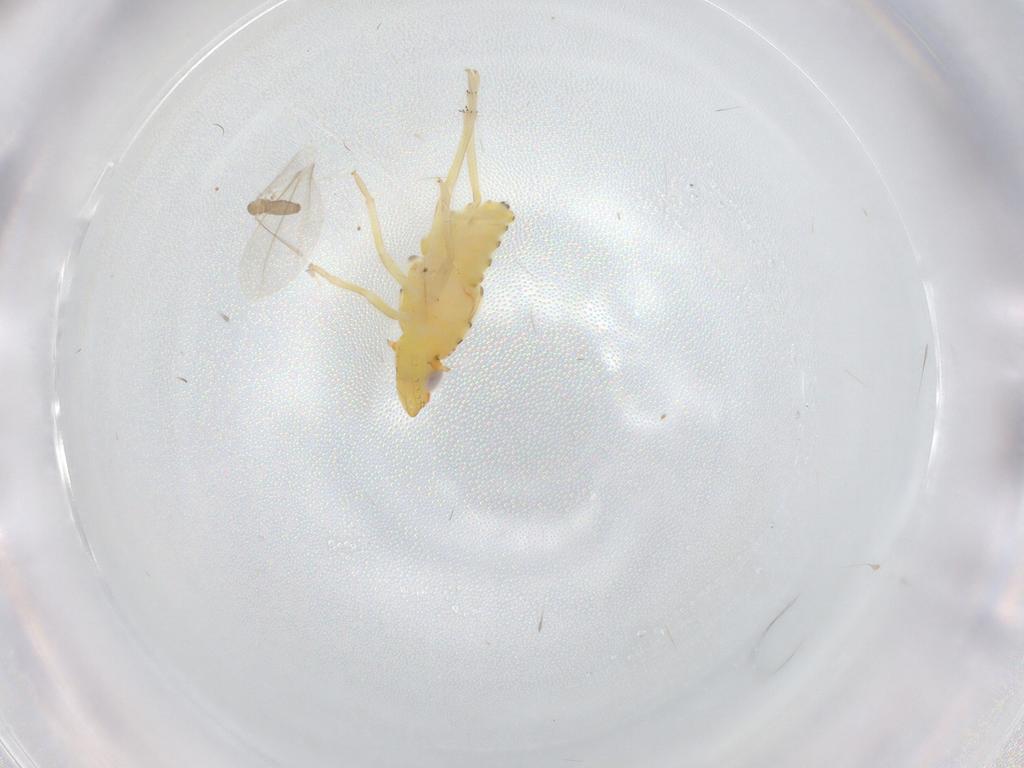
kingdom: Animalia
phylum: Arthropoda
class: Insecta
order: Hemiptera
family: Tropiduchidae
